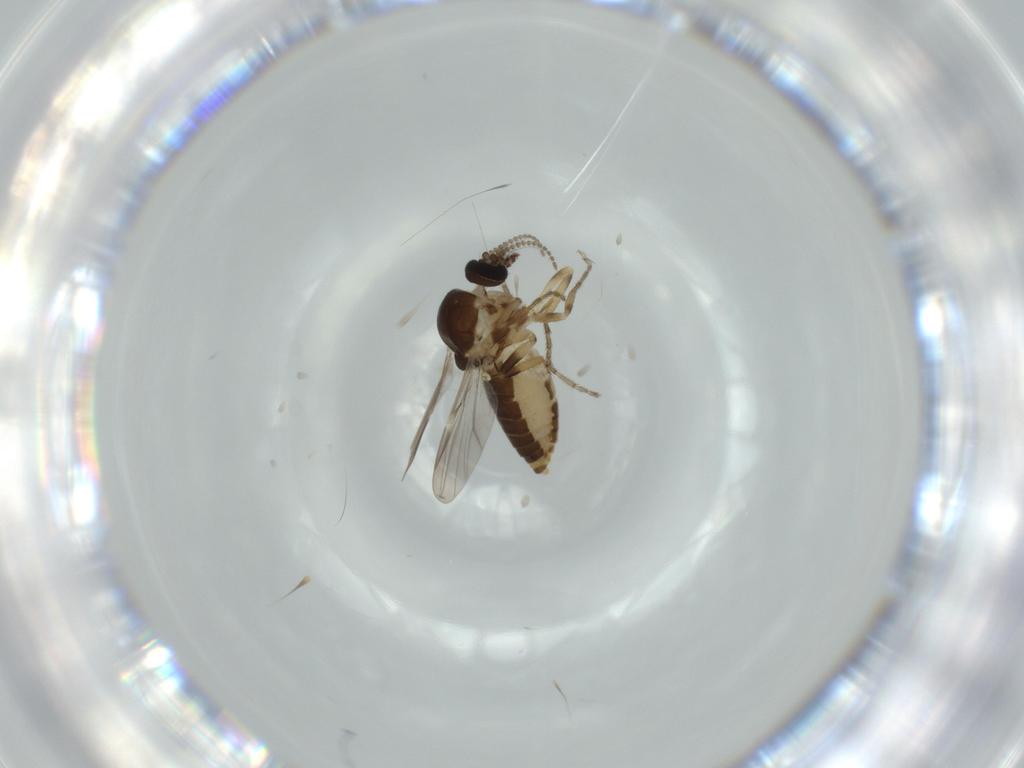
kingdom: Animalia
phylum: Arthropoda
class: Insecta
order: Diptera
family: Ceratopogonidae
